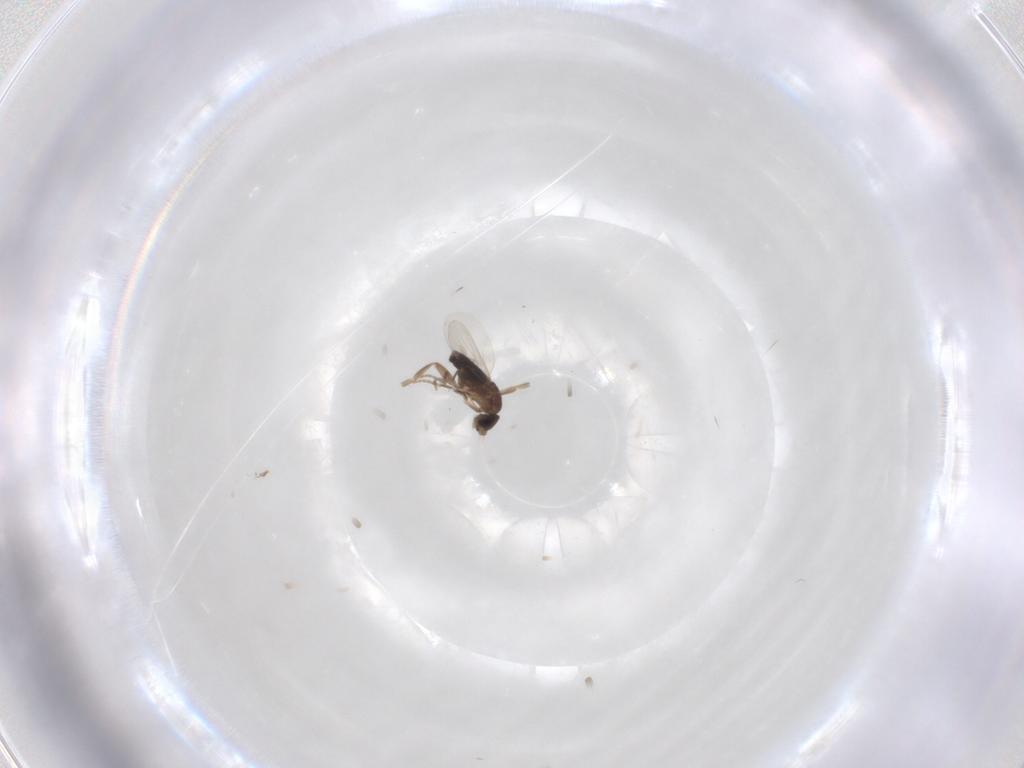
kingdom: Animalia
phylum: Arthropoda
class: Insecta
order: Diptera
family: Phoridae
